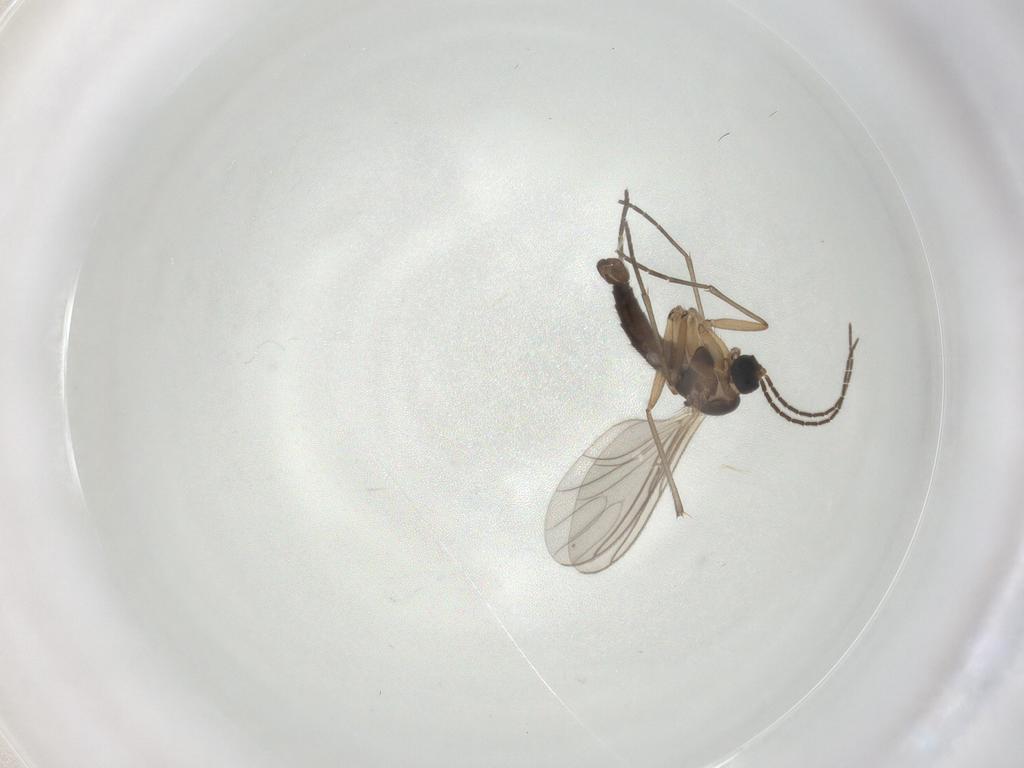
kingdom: Animalia
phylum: Arthropoda
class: Insecta
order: Diptera
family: Sciaridae
